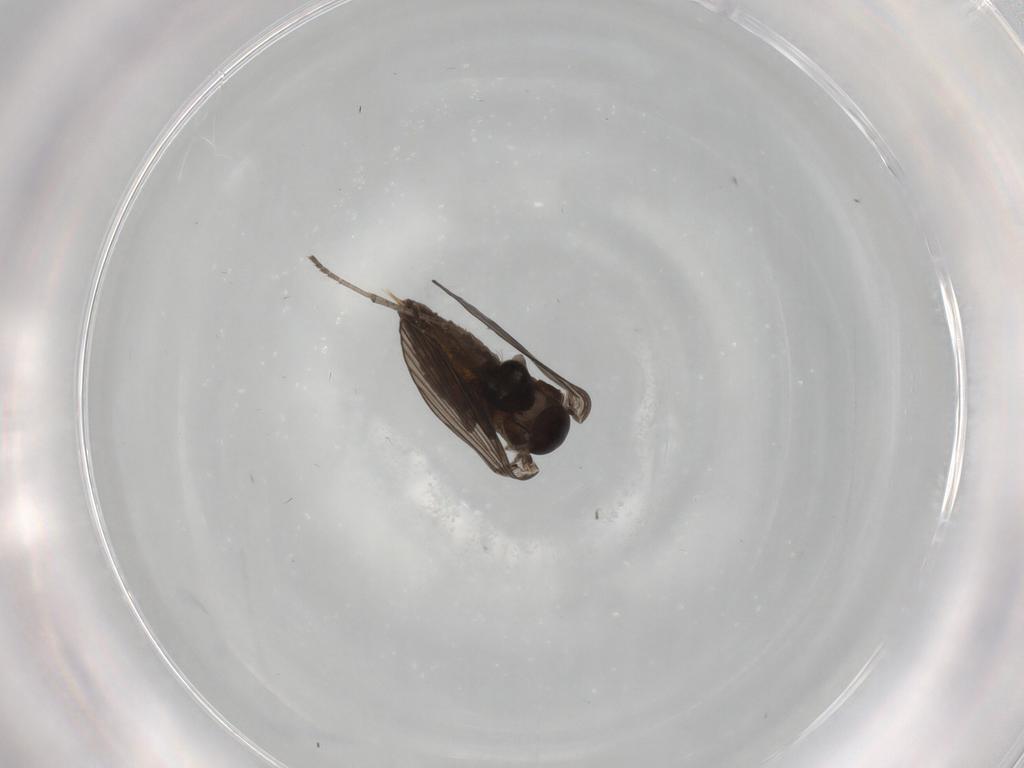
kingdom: Animalia
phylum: Arthropoda
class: Insecta
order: Diptera
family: Psychodidae
